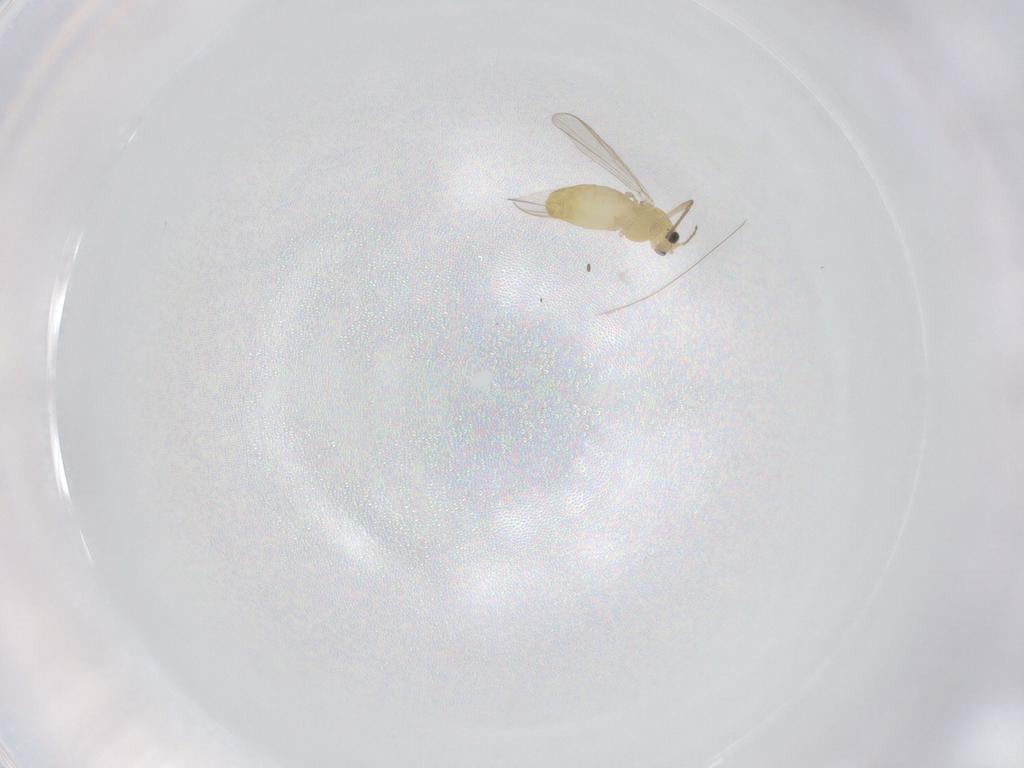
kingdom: Animalia
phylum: Arthropoda
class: Insecta
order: Diptera
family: Chironomidae
